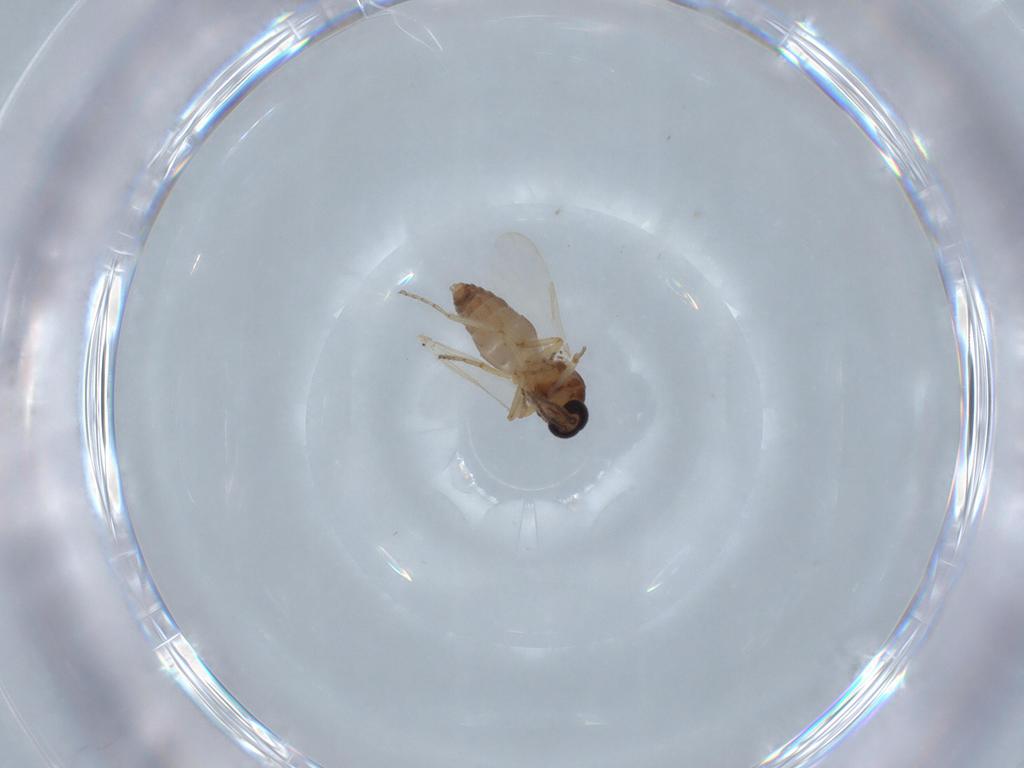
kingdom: Animalia
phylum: Arthropoda
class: Insecta
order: Diptera
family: Ceratopogonidae
